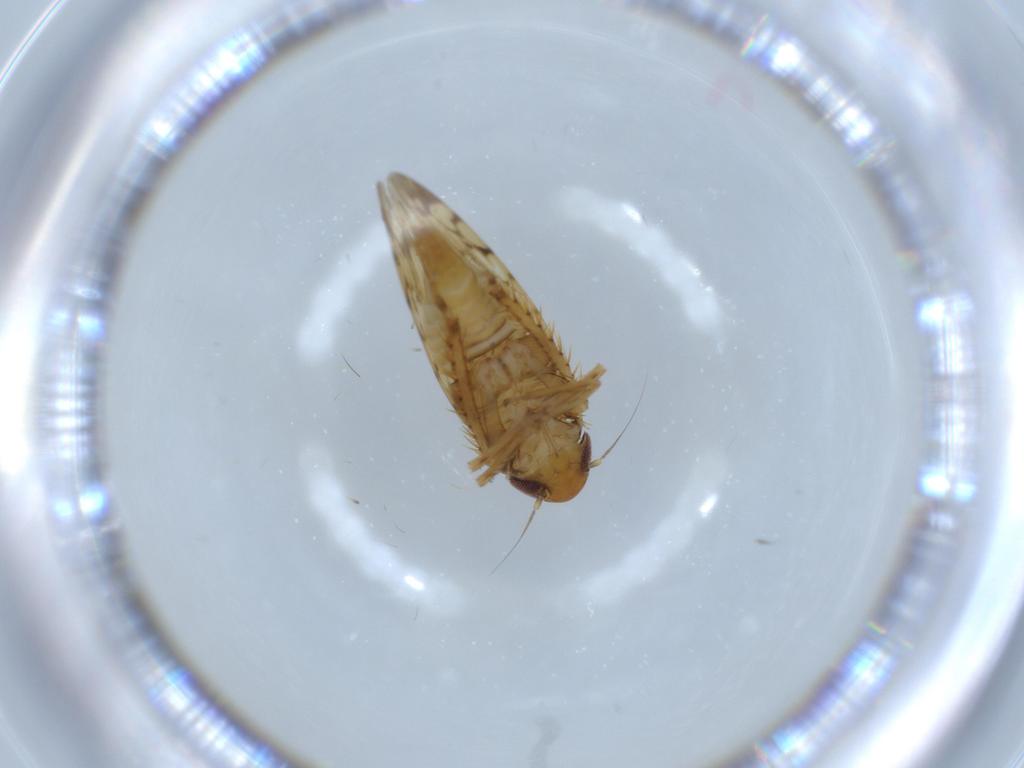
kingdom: Animalia
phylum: Arthropoda
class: Insecta
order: Hemiptera
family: Cicadellidae
